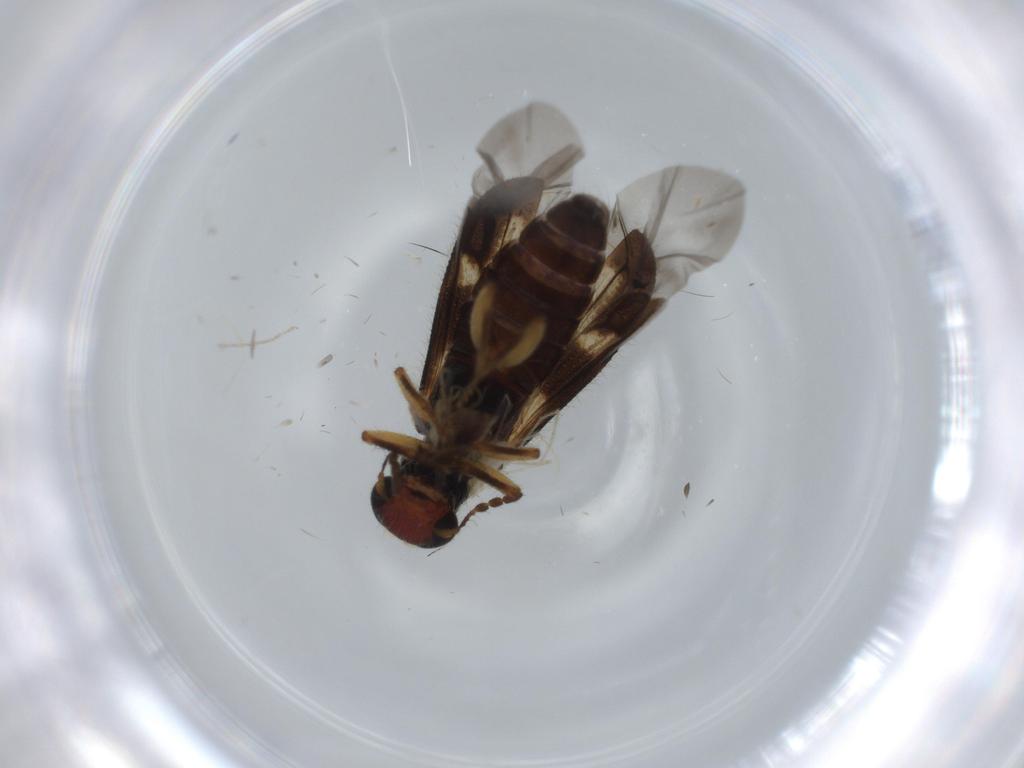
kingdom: Animalia
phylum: Arthropoda
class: Insecta
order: Coleoptera
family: Cleridae
